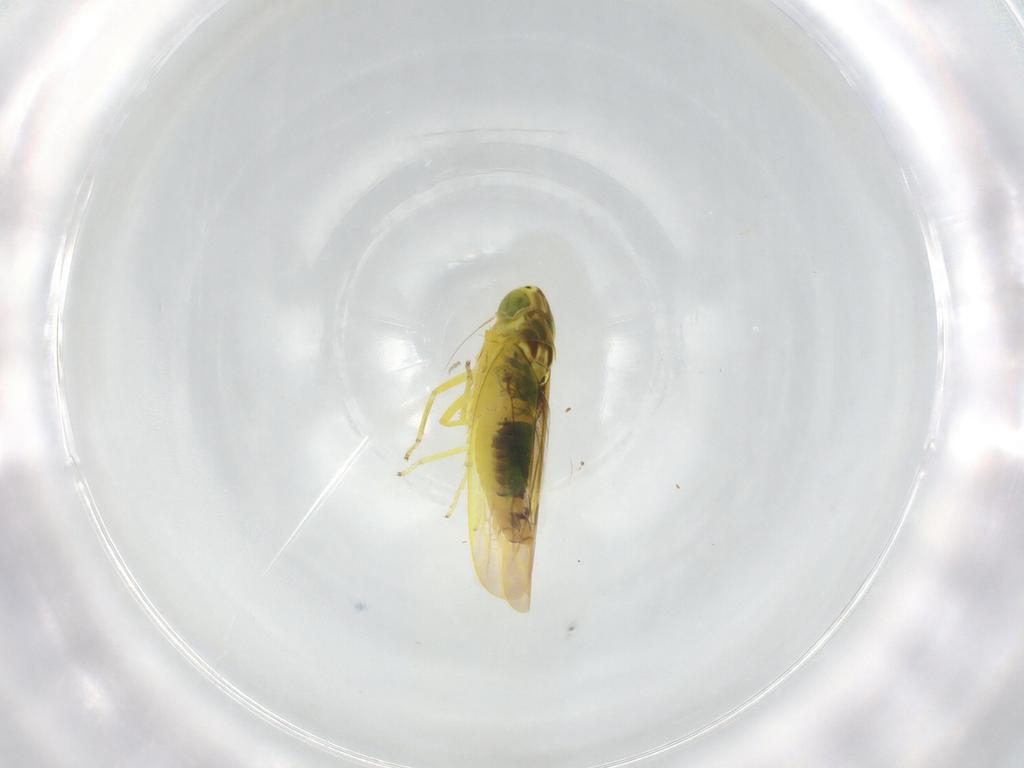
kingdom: Animalia
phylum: Arthropoda
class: Insecta
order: Hemiptera
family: Cicadellidae
